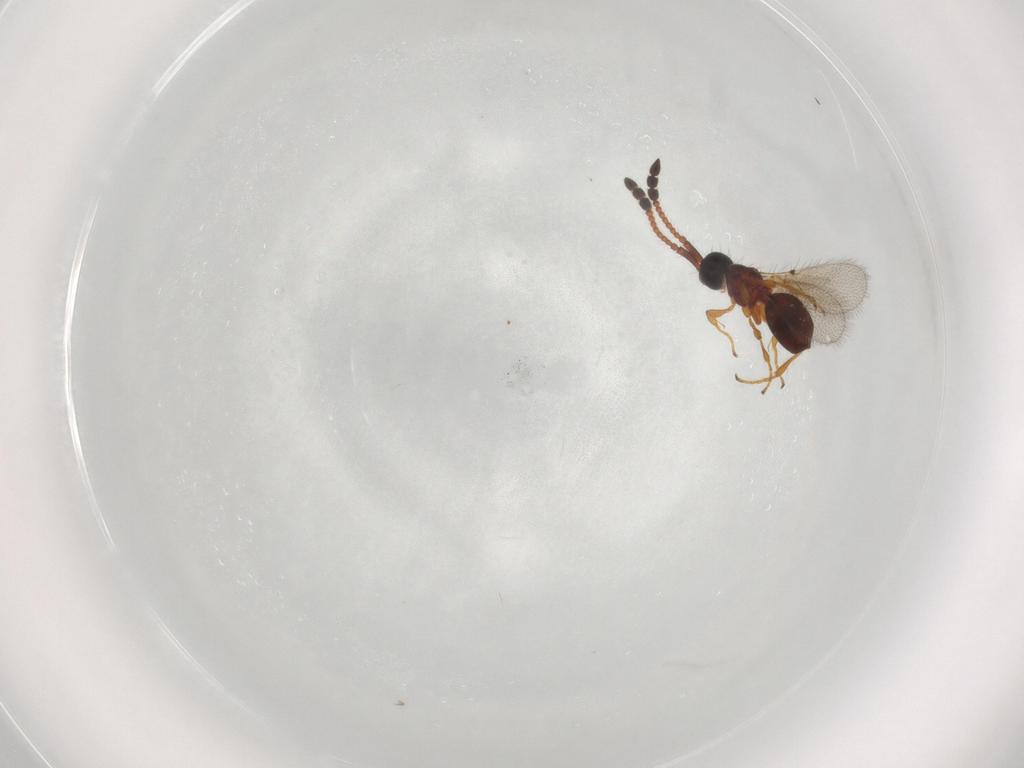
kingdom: Animalia
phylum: Arthropoda
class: Insecta
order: Hymenoptera
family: Diapriidae
